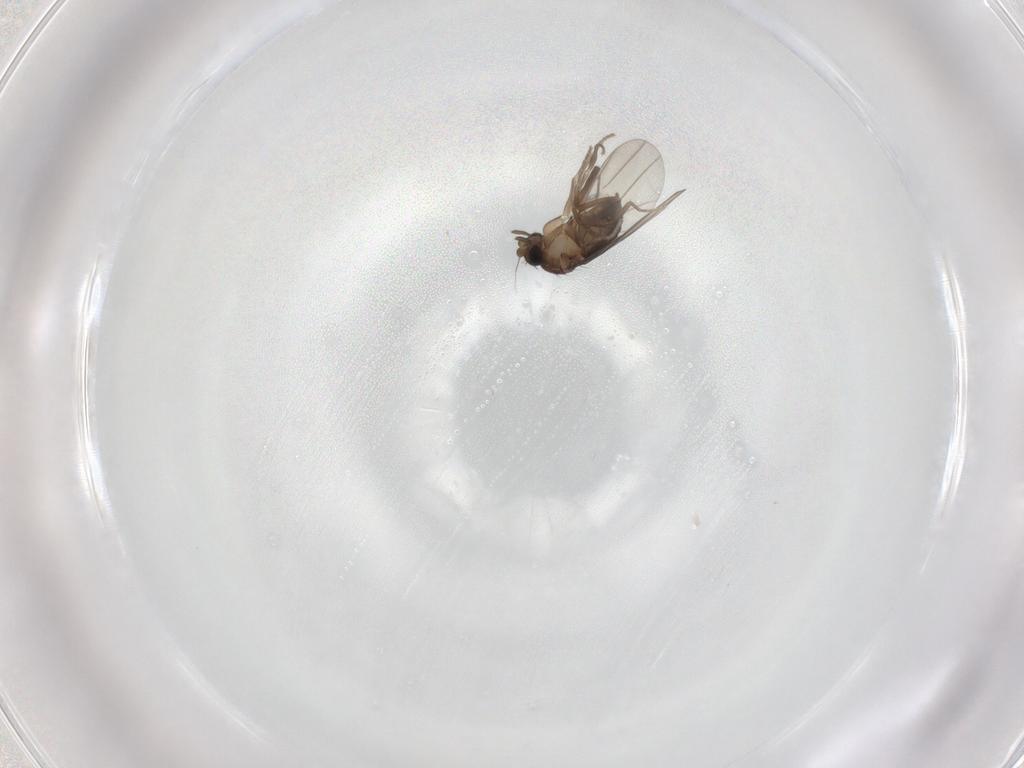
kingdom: Animalia
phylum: Arthropoda
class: Insecta
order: Diptera
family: Phoridae
